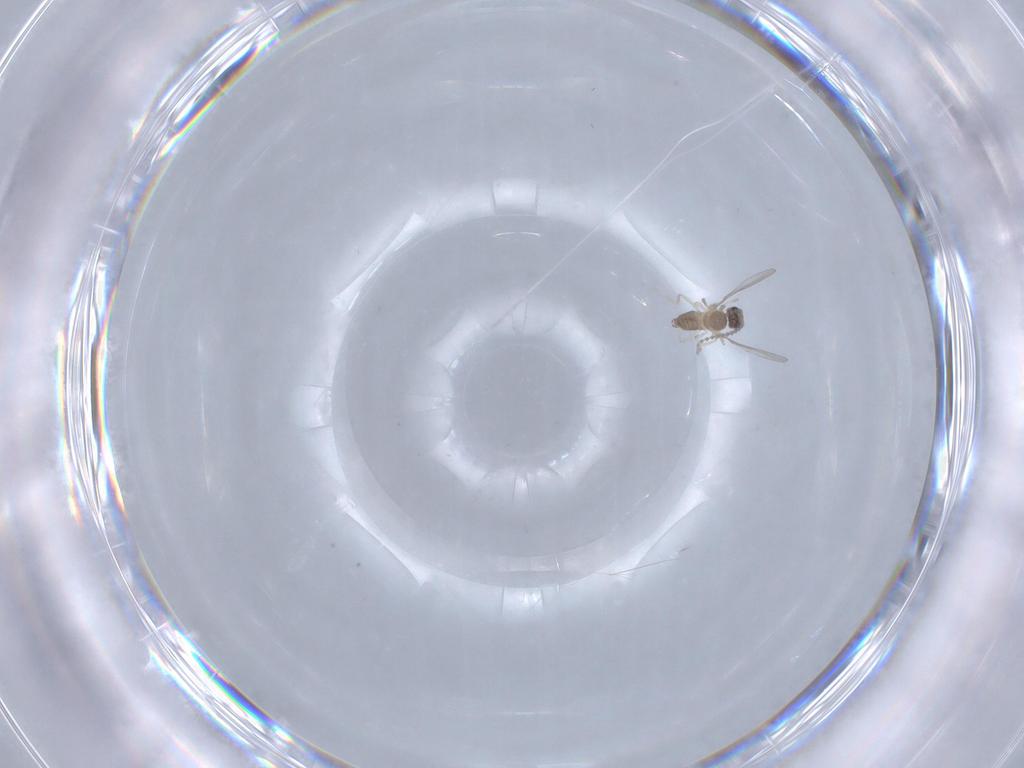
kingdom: Animalia
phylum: Arthropoda
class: Insecta
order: Diptera
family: Cecidomyiidae
